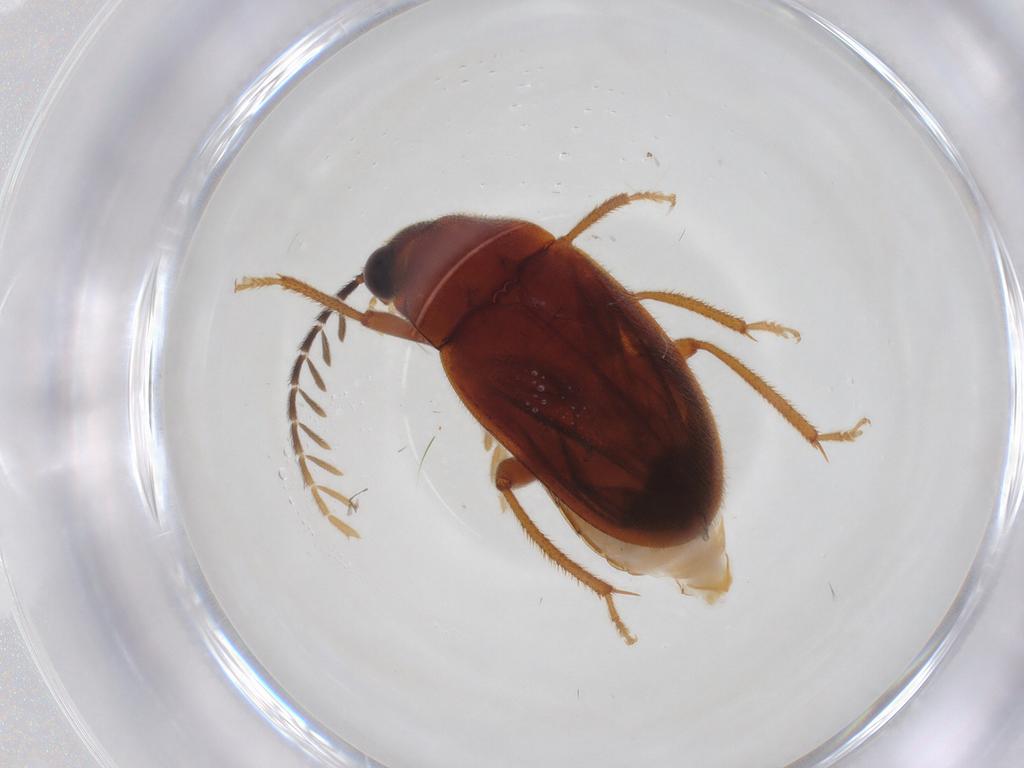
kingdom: Animalia
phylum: Arthropoda
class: Insecta
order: Coleoptera
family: Ptilodactylidae
